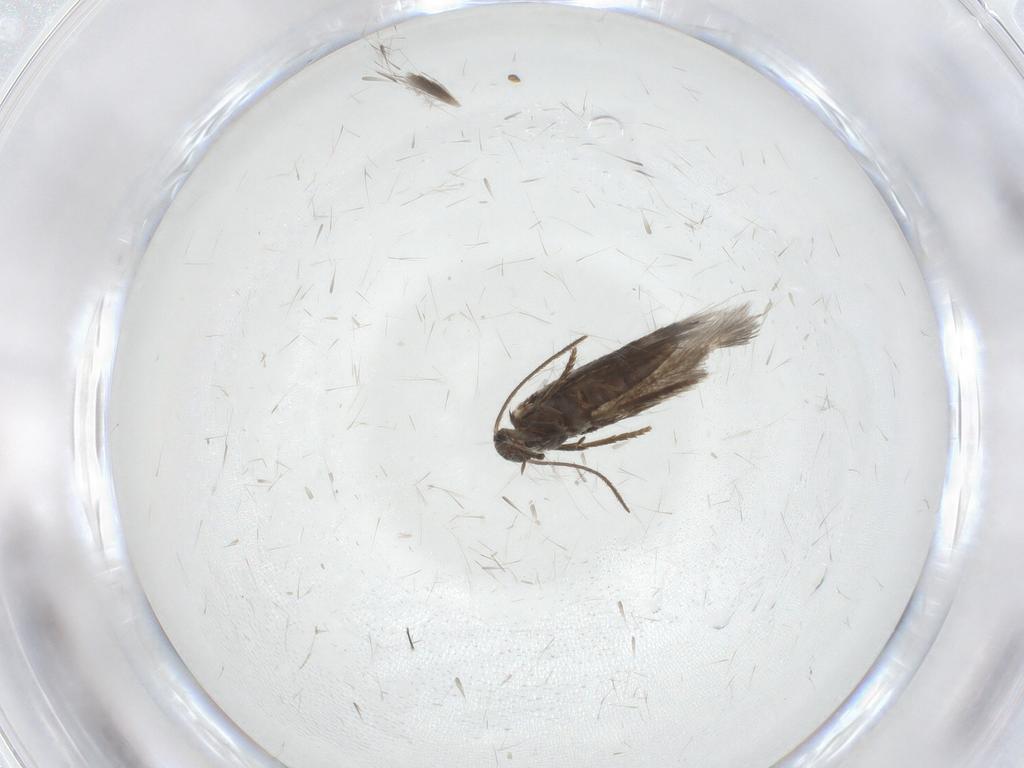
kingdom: Animalia
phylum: Arthropoda
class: Insecta
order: Lepidoptera
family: Heliozelidae
